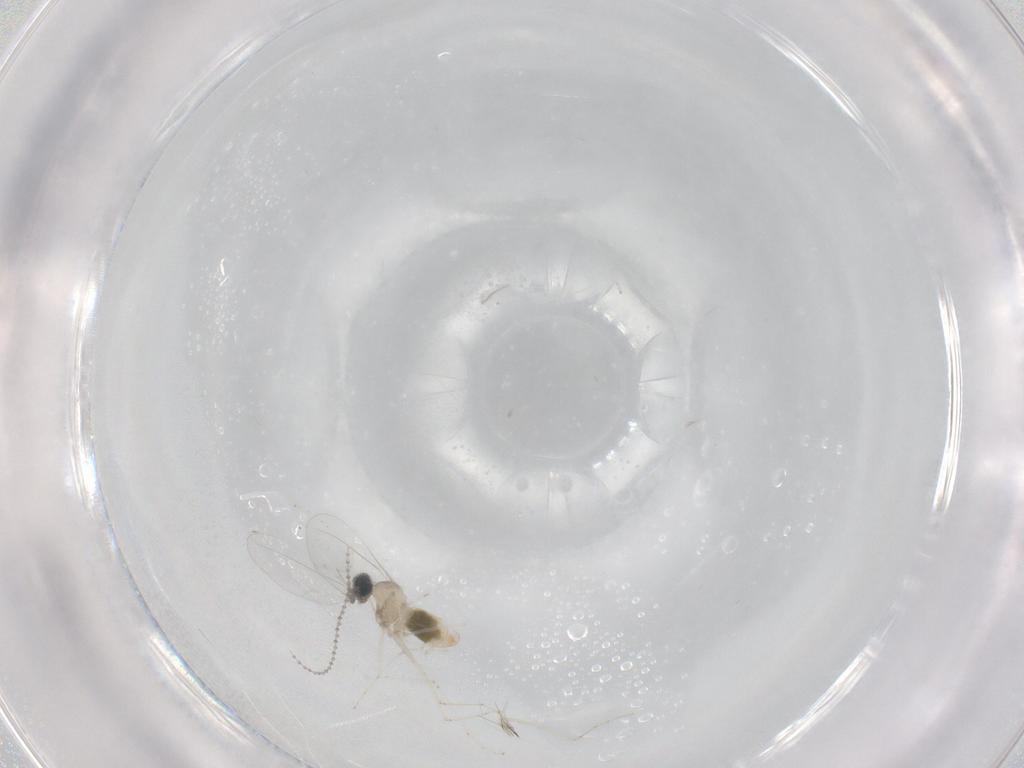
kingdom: Animalia
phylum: Arthropoda
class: Insecta
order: Diptera
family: Cecidomyiidae
